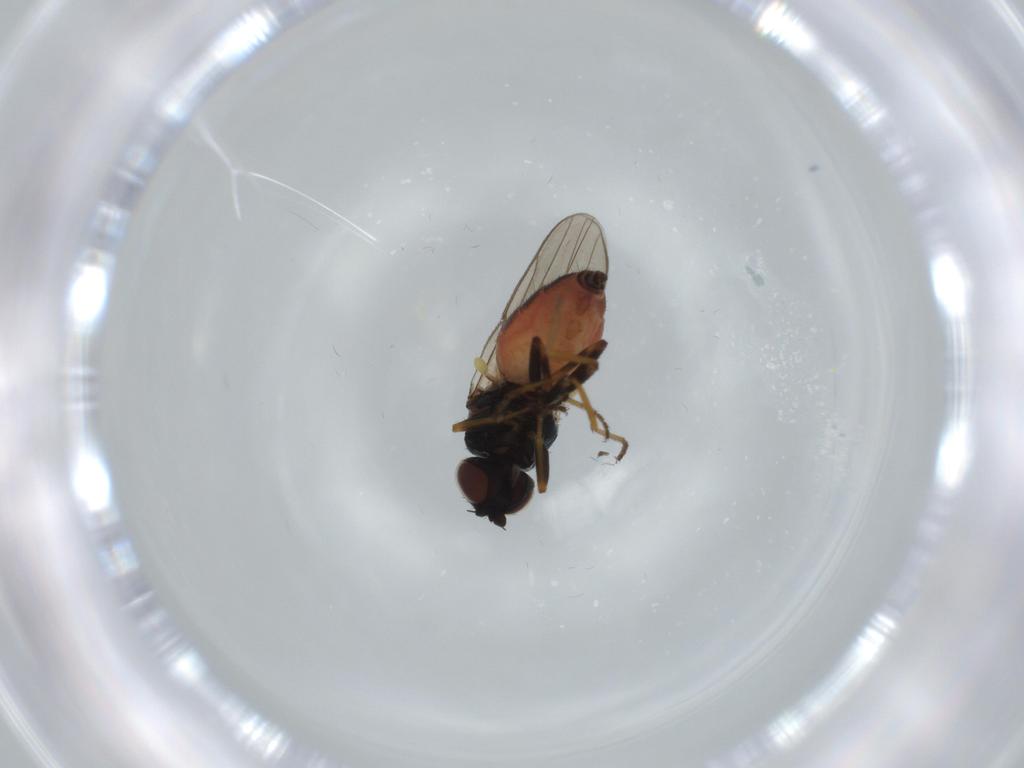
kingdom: Animalia
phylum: Arthropoda
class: Insecta
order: Diptera
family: Chloropidae
